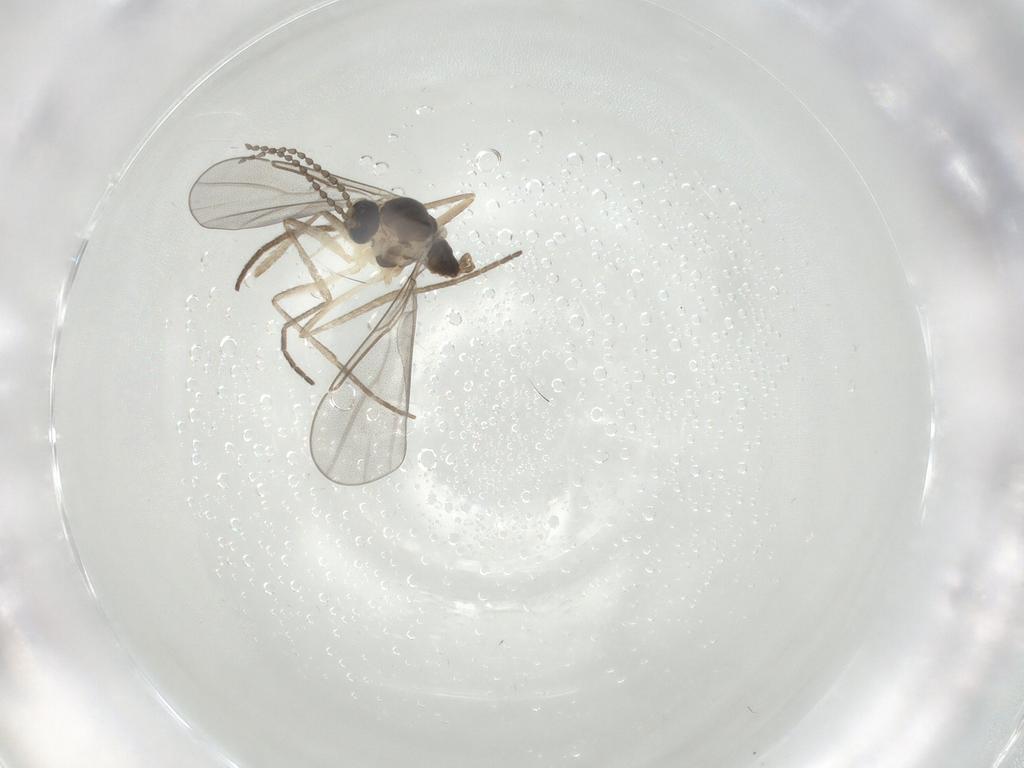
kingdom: Animalia
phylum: Arthropoda
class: Insecta
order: Diptera
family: Cecidomyiidae
